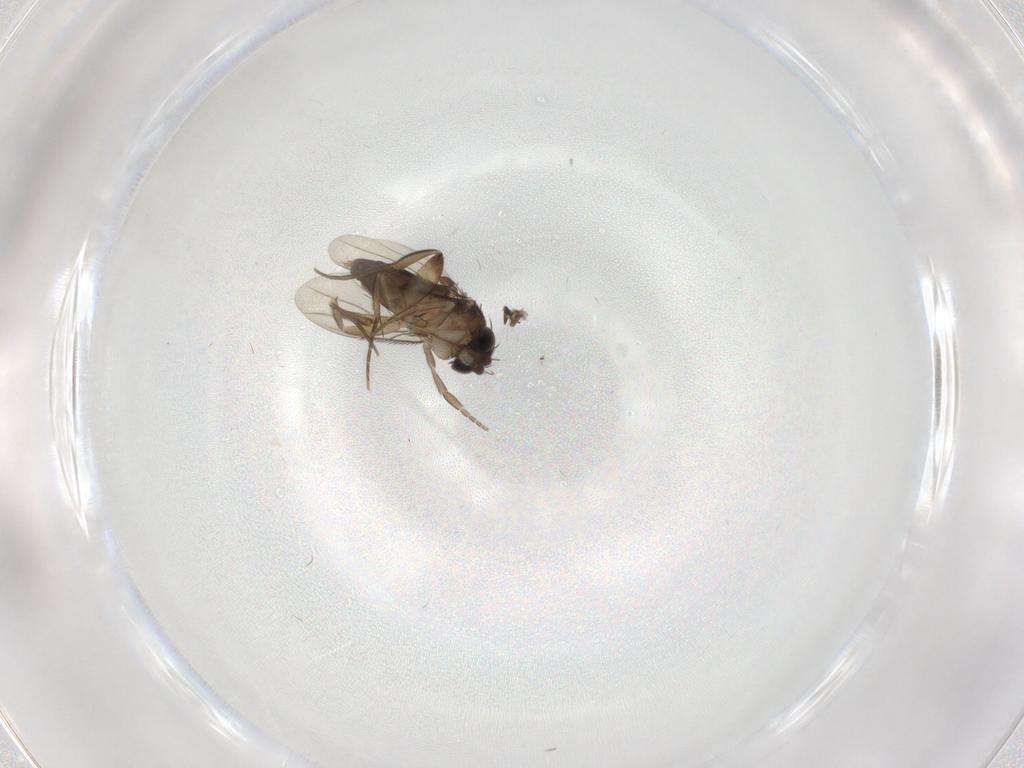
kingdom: Animalia
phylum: Arthropoda
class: Insecta
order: Diptera
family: Phoridae
